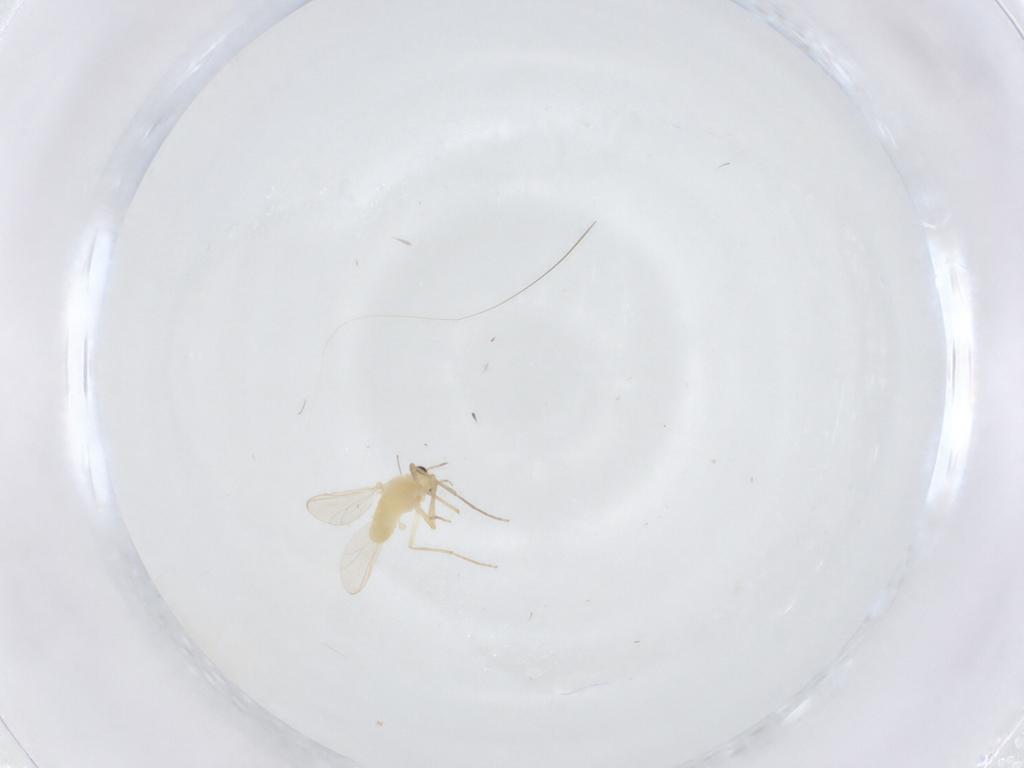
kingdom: Animalia
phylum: Arthropoda
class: Insecta
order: Diptera
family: Chironomidae
